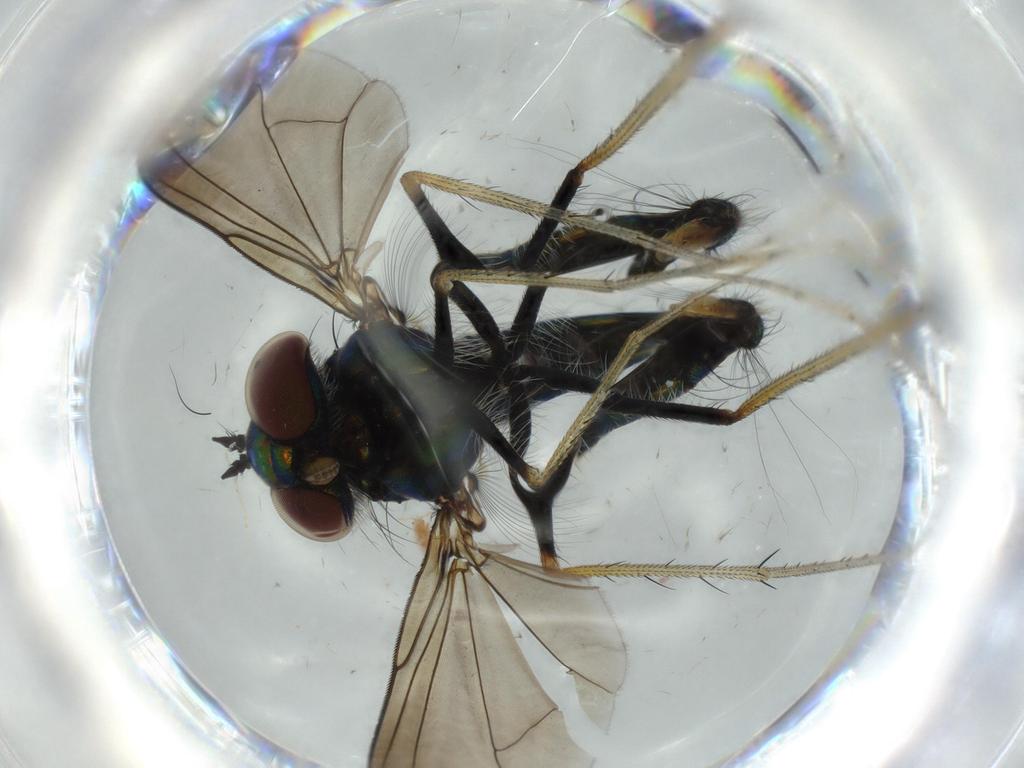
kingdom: Animalia
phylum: Arthropoda
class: Insecta
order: Diptera
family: Dolichopodidae
